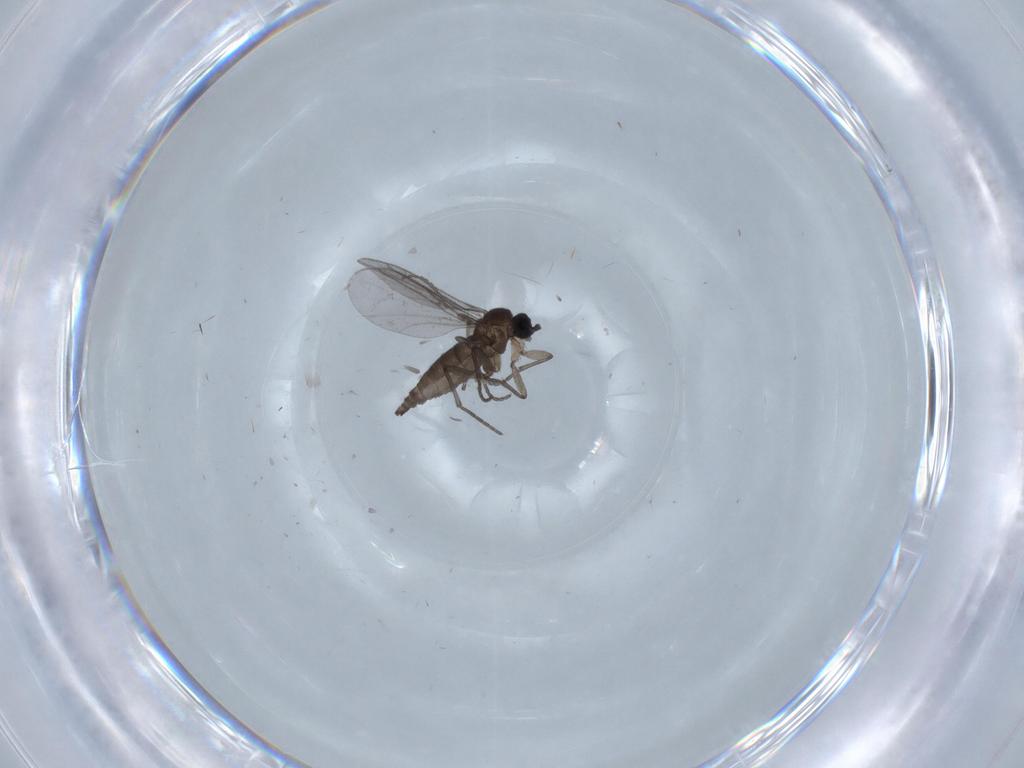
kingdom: Animalia
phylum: Arthropoda
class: Insecta
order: Diptera
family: Cecidomyiidae
